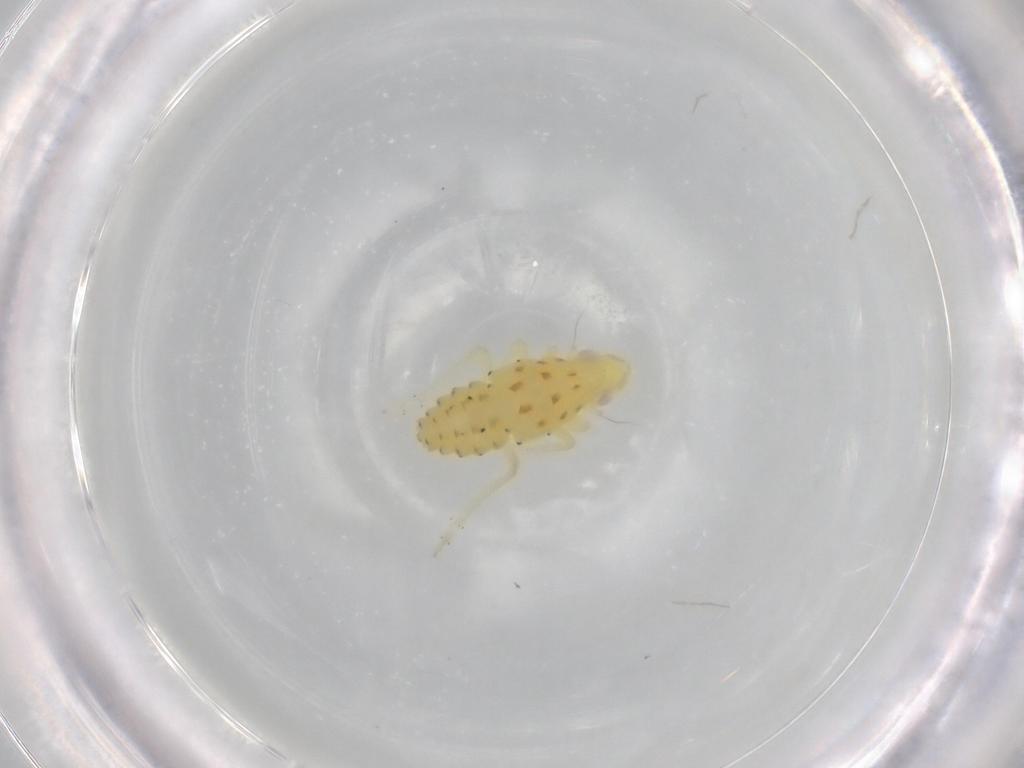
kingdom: Animalia
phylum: Arthropoda
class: Insecta
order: Hemiptera
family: Tropiduchidae
